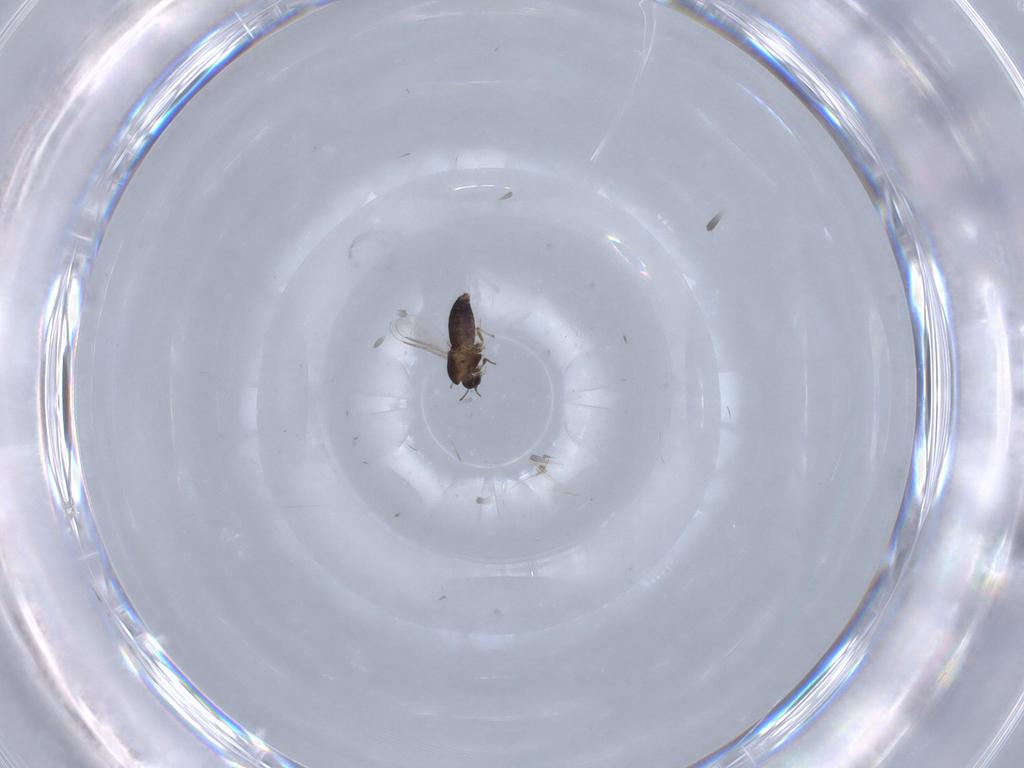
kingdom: Animalia
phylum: Arthropoda
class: Insecta
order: Diptera
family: Chironomidae
